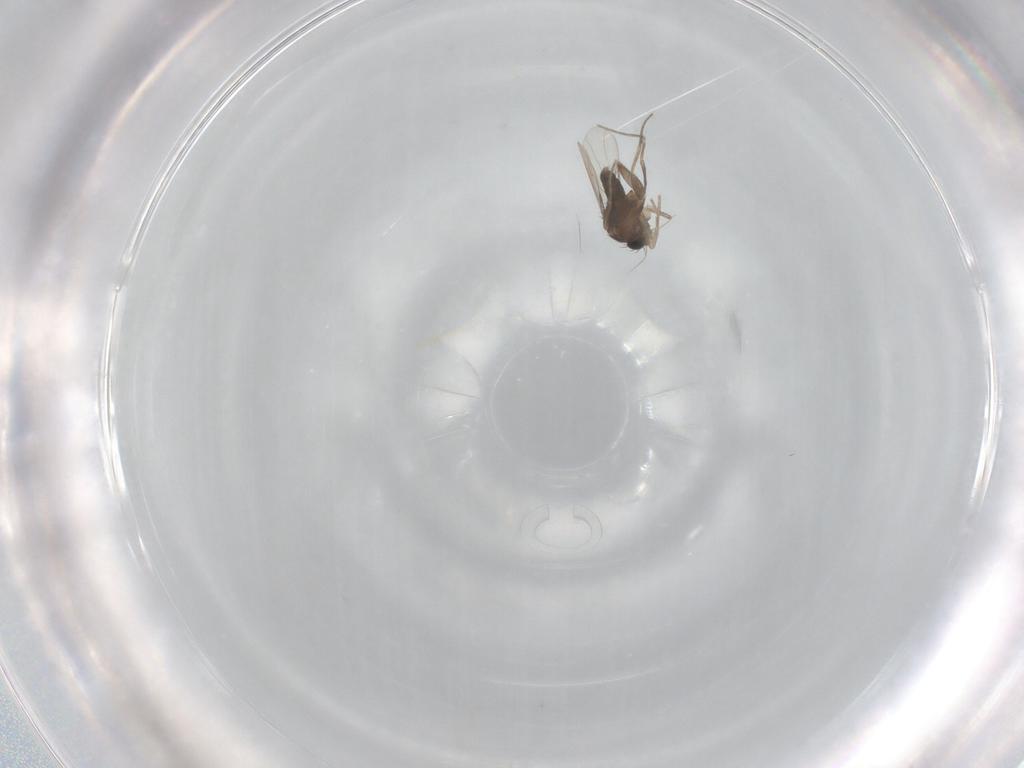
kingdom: Animalia
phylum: Arthropoda
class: Insecta
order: Diptera
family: Phoridae
